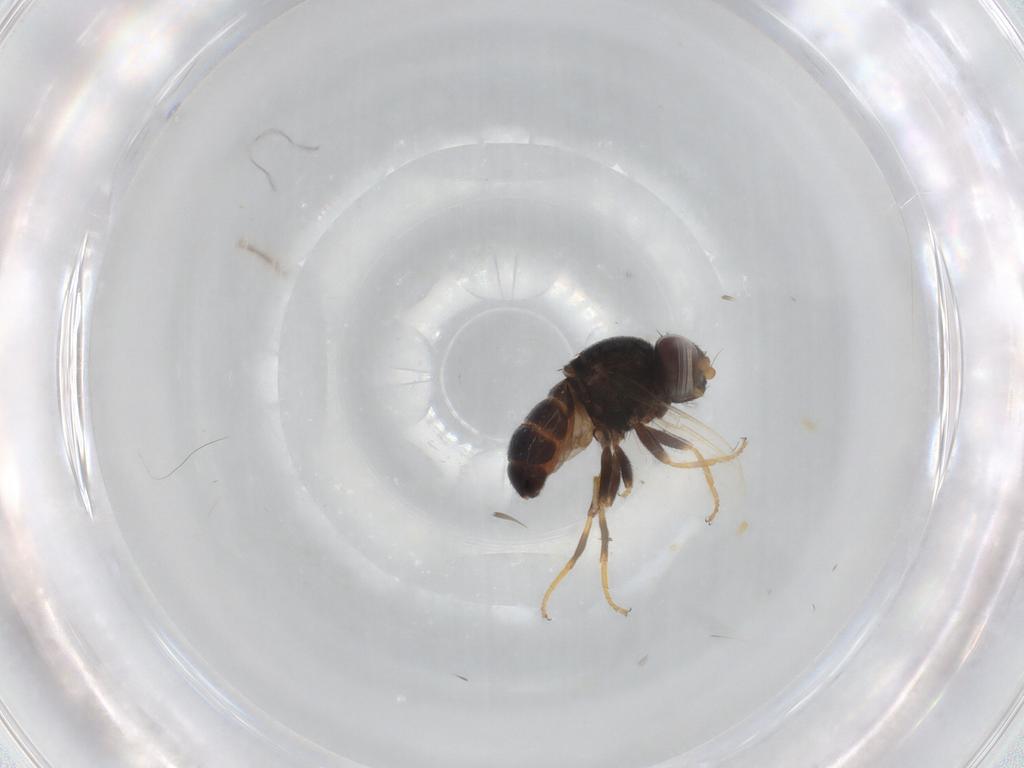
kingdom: Animalia
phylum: Arthropoda
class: Insecta
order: Diptera
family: Chloropidae
